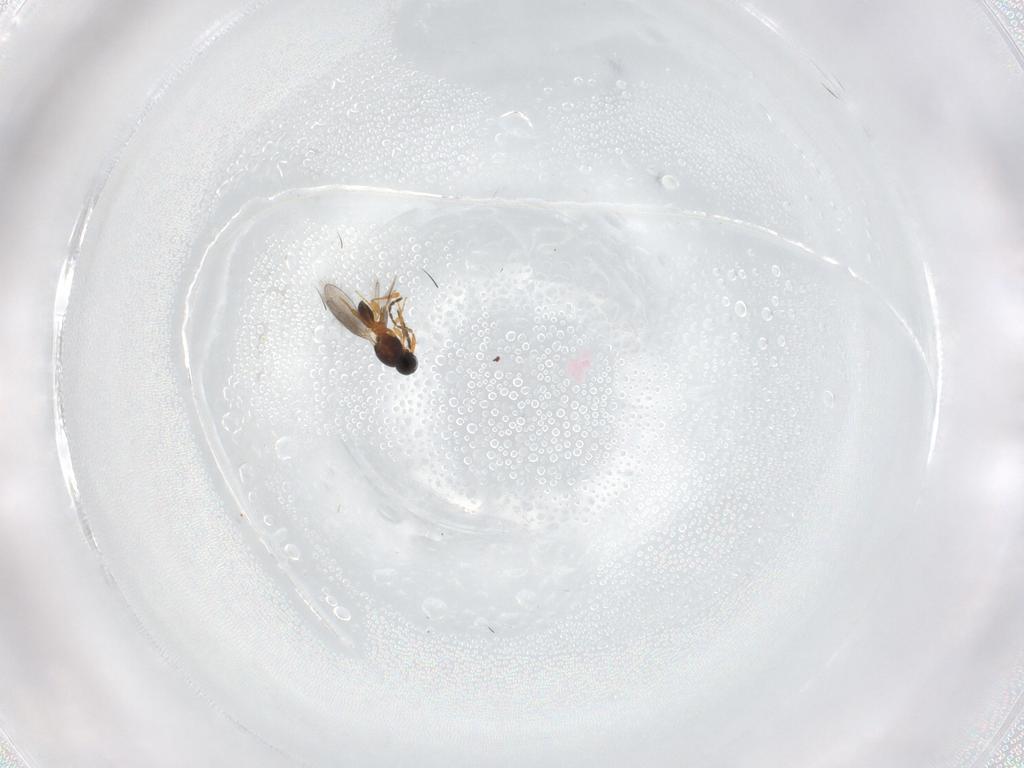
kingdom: Animalia
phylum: Arthropoda
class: Insecta
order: Hymenoptera
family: Platygastridae
